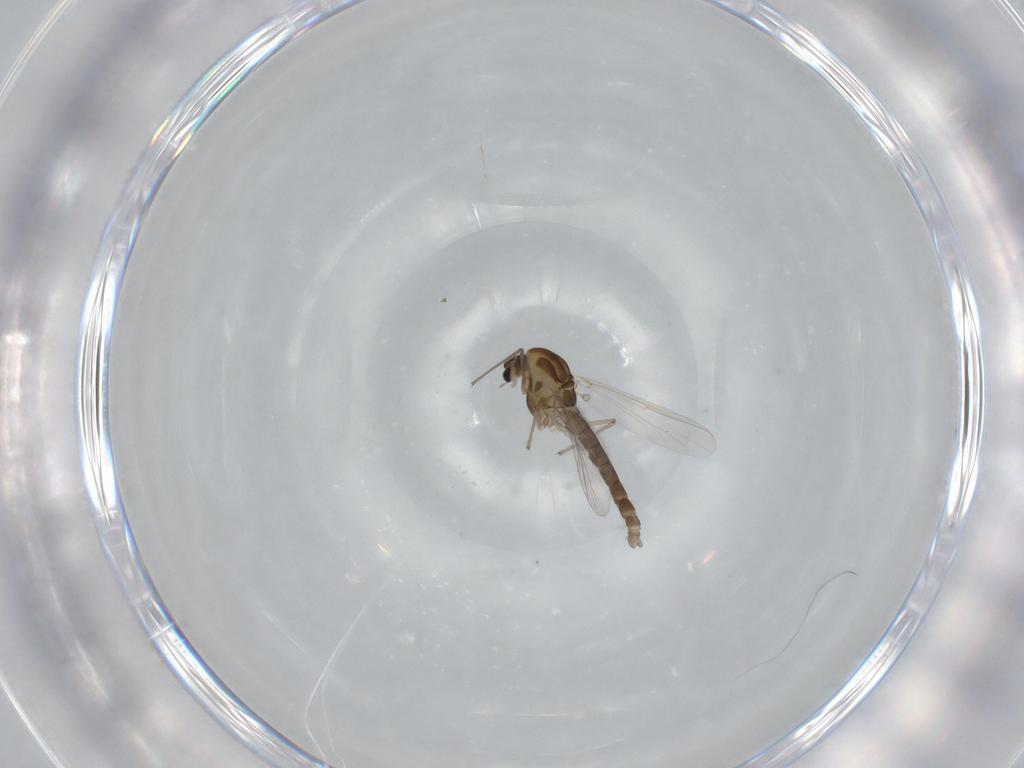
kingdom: Animalia
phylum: Arthropoda
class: Insecta
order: Diptera
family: Chironomidae
